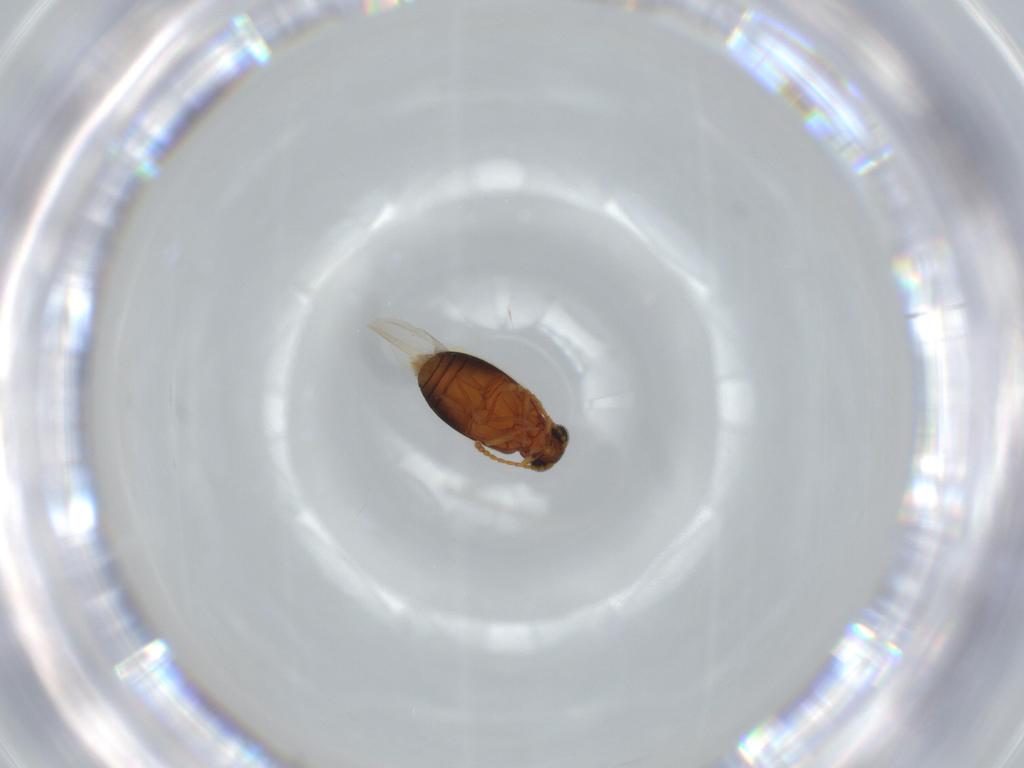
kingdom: Animalia
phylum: Arthropoda
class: Insecta
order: Coleoptera
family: Aderidae
